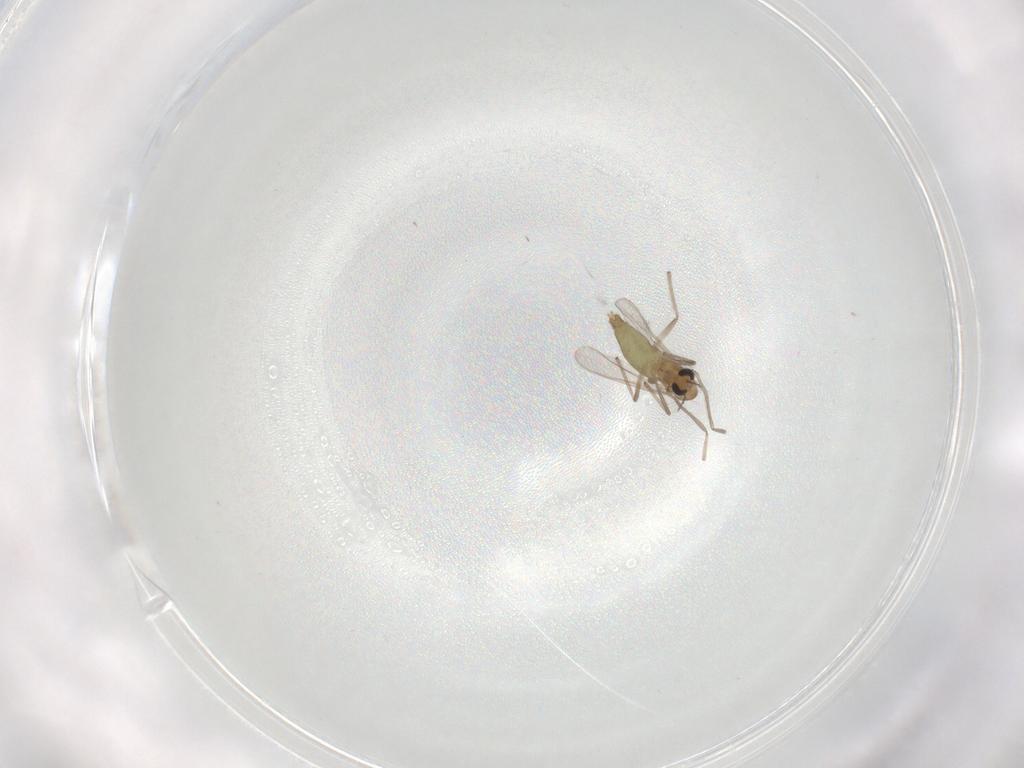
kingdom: Animalia
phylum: Arthropoda
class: Insecta
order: Diptera
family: Chironomidae
